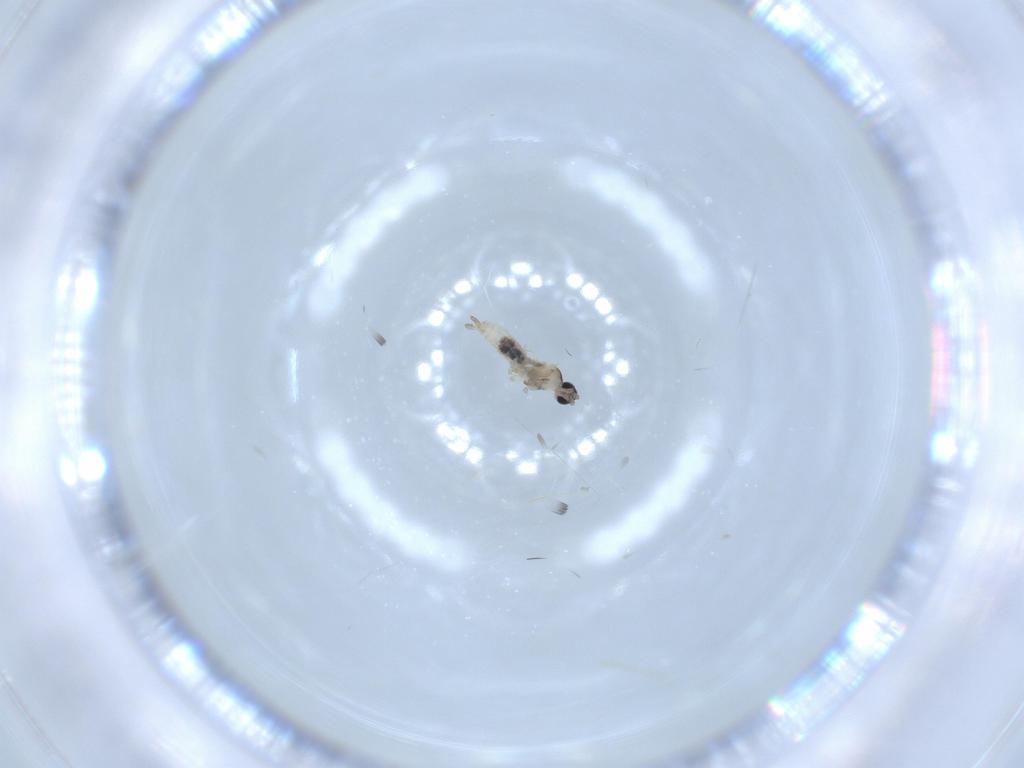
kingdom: Animalia
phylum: Arthropoda
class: Insecta
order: Diptera
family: Cecidomyiidae
